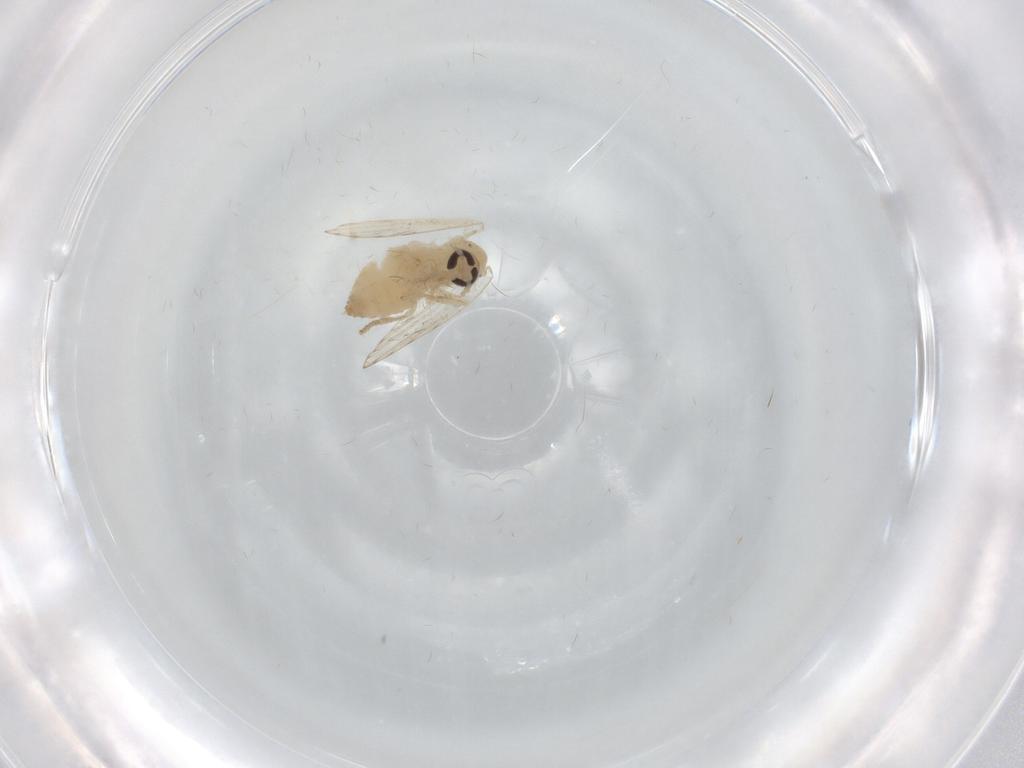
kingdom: Animalia
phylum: Arthropoda
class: Insecta
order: Diptera
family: Psychodidae
